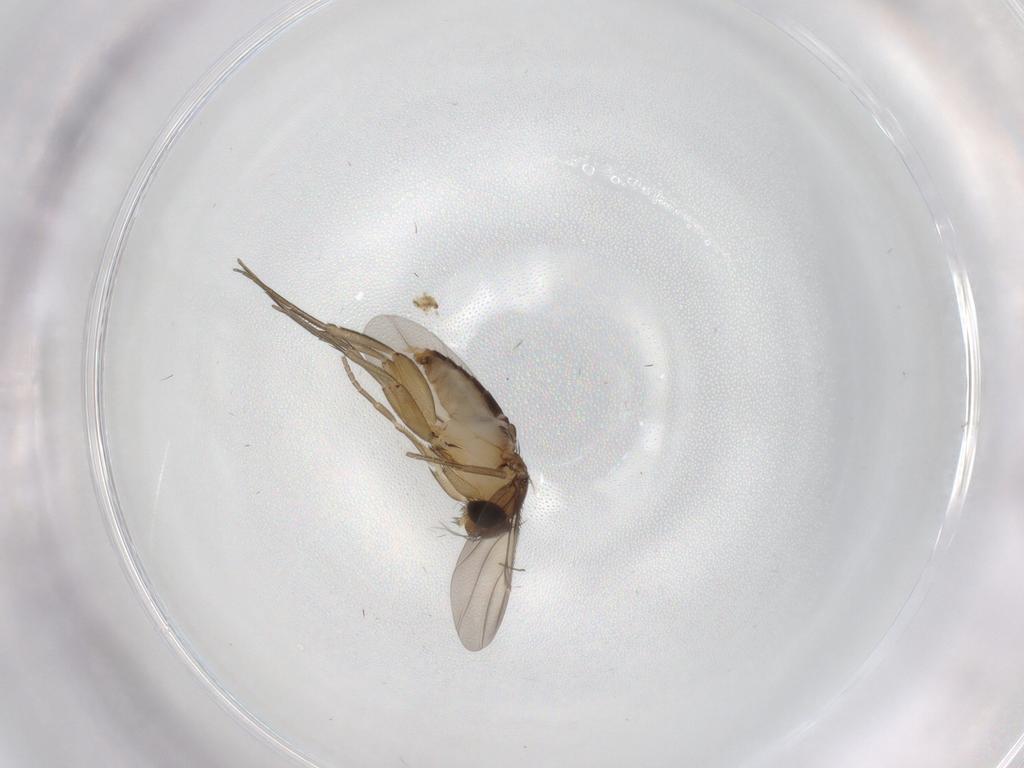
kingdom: Animalia
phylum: Arthropoda
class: Insecta
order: Diptera
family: Phoridae
